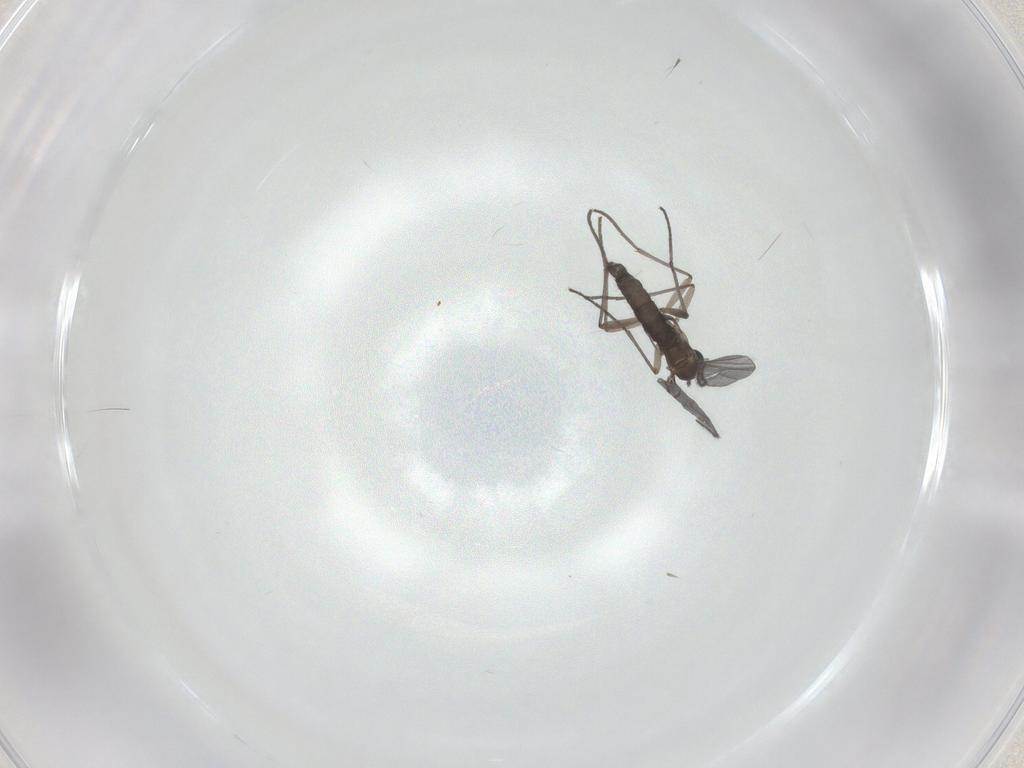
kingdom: Animalia
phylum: Arthropoda
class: Insecta
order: Diptera
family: Sciaridae
